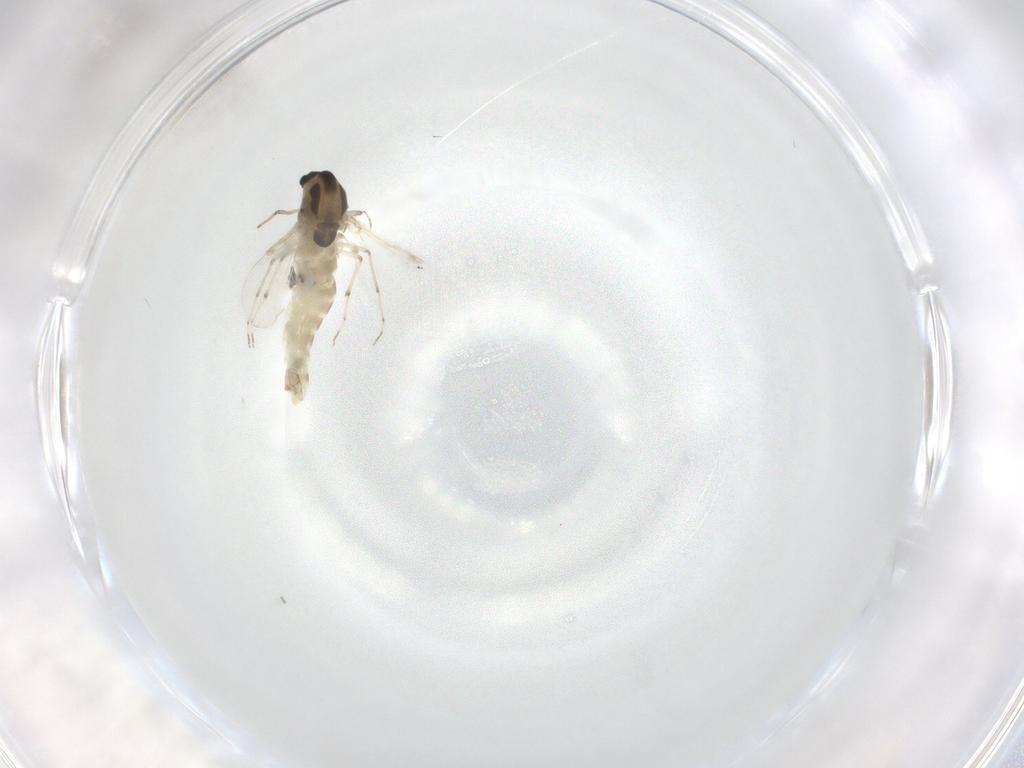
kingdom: Animalia
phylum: Arthropoda
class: Insecta
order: Diptera
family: Chironomidae
